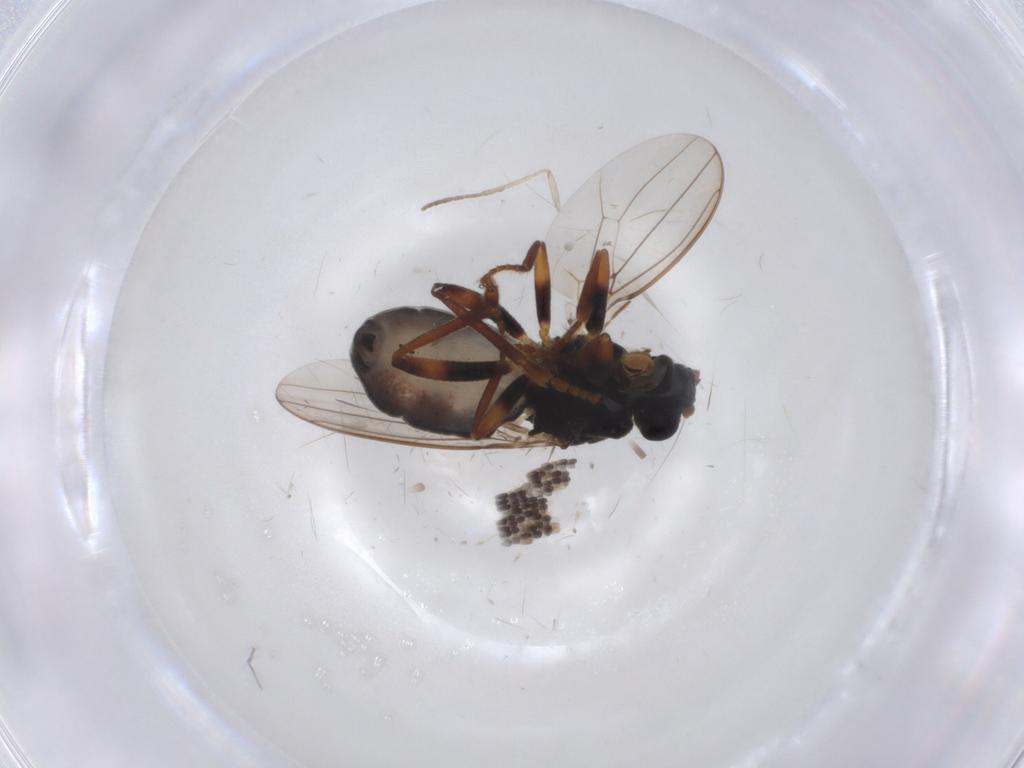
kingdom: Animalia
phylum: Arthropoda
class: Insecta
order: Diptera
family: Sphaeroceridae
